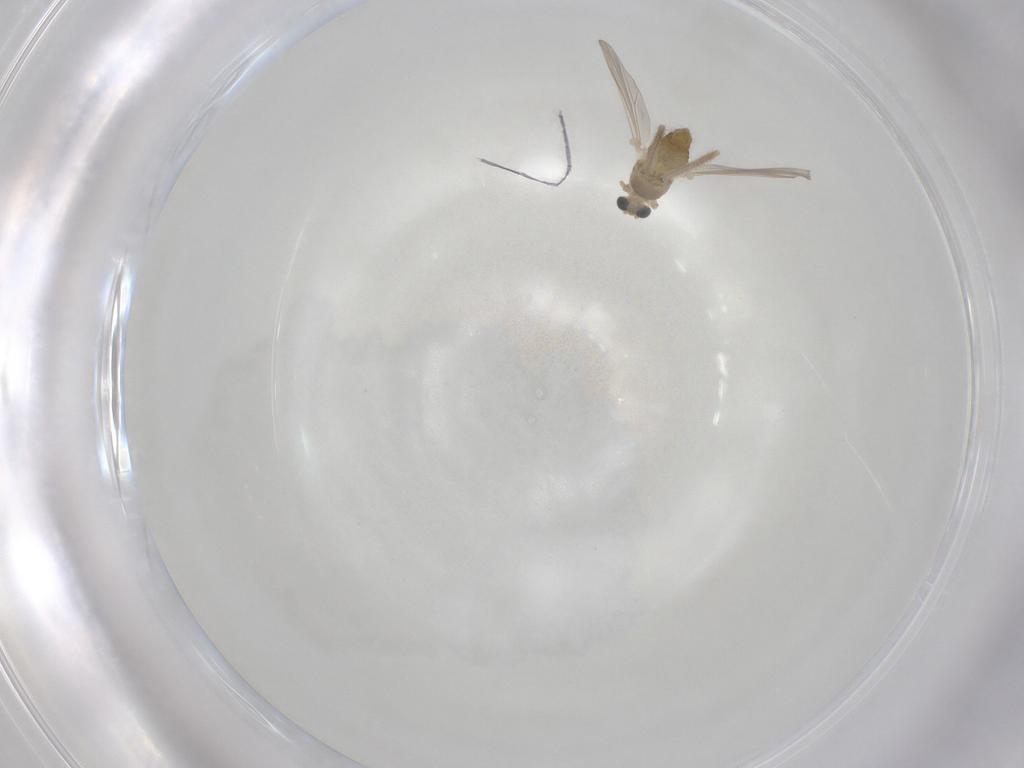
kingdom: Animalia
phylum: Arthropoda
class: Insecta
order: Diptera
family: Chironomidae
